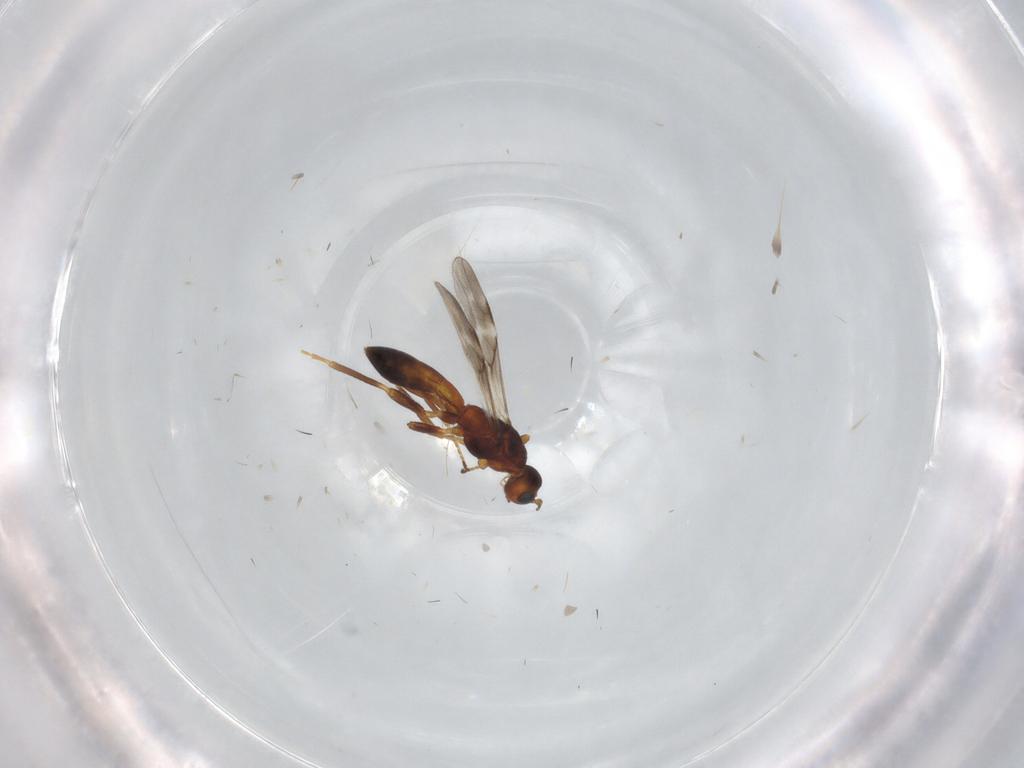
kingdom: Animalia
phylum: Arthropoda
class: Insecta
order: Hymenoptera
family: Braconidae
